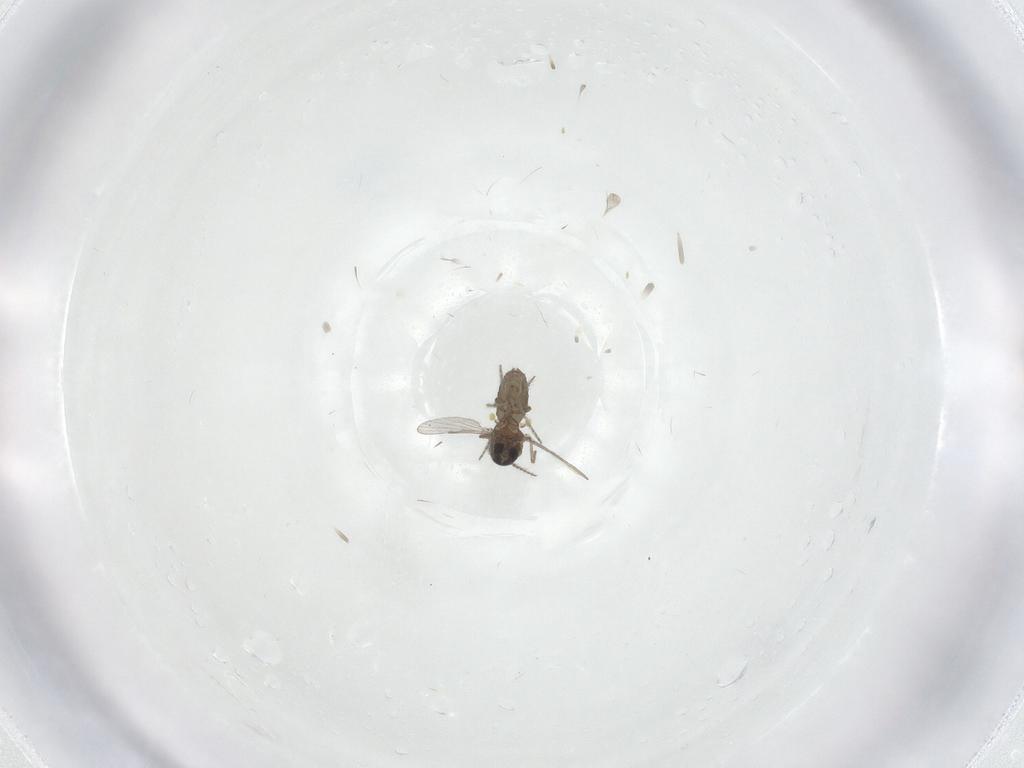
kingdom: Animalia
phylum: Arthropoda
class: Insecta
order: Diptera
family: Ceratopogonidae
